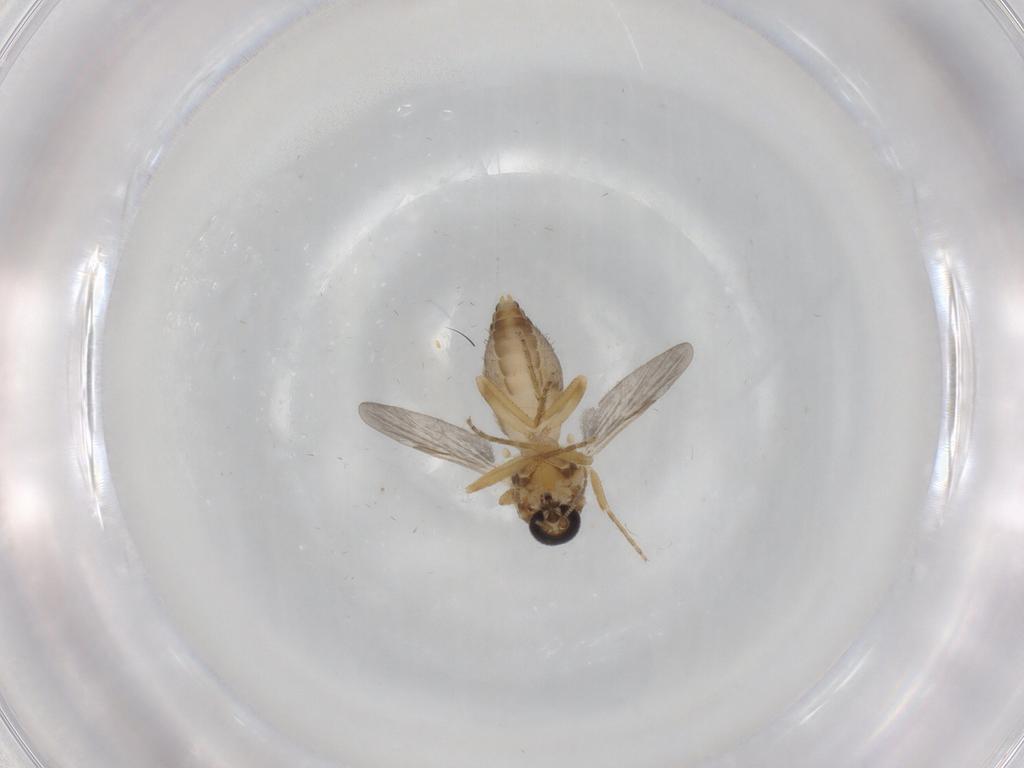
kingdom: Animalia
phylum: Arthropoda
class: Insecta
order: Diptera
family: Ceratopogonidae
